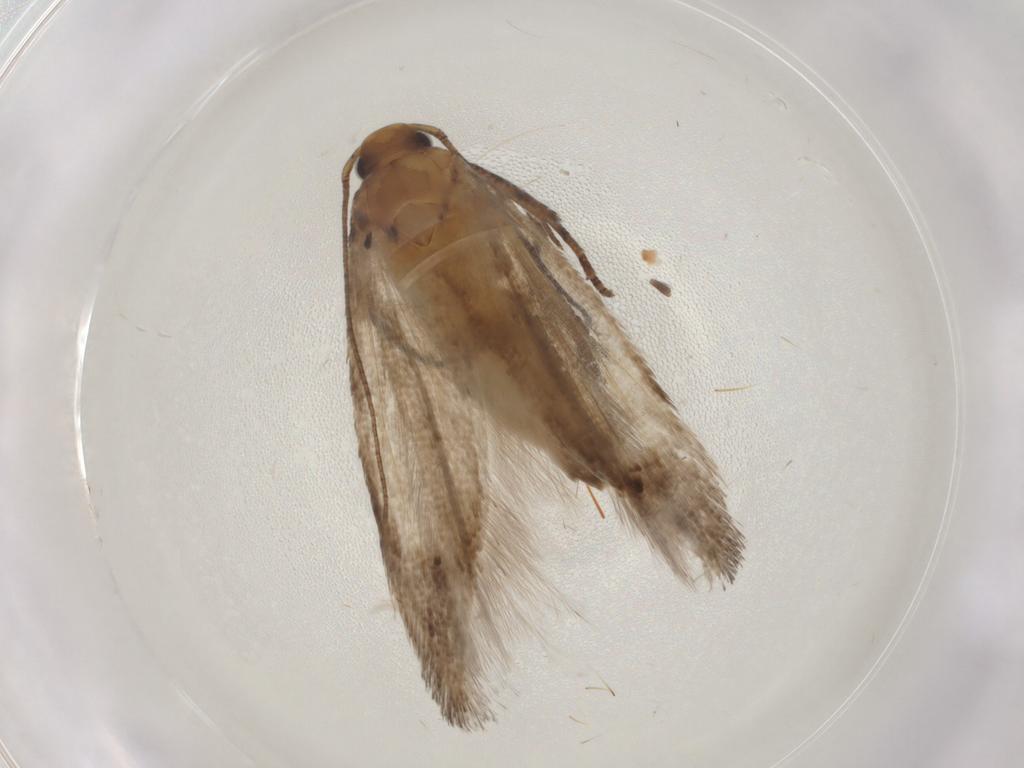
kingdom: Animalia
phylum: Arthropoda
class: Insecta
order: Lepidoptera
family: Gelechiidae
